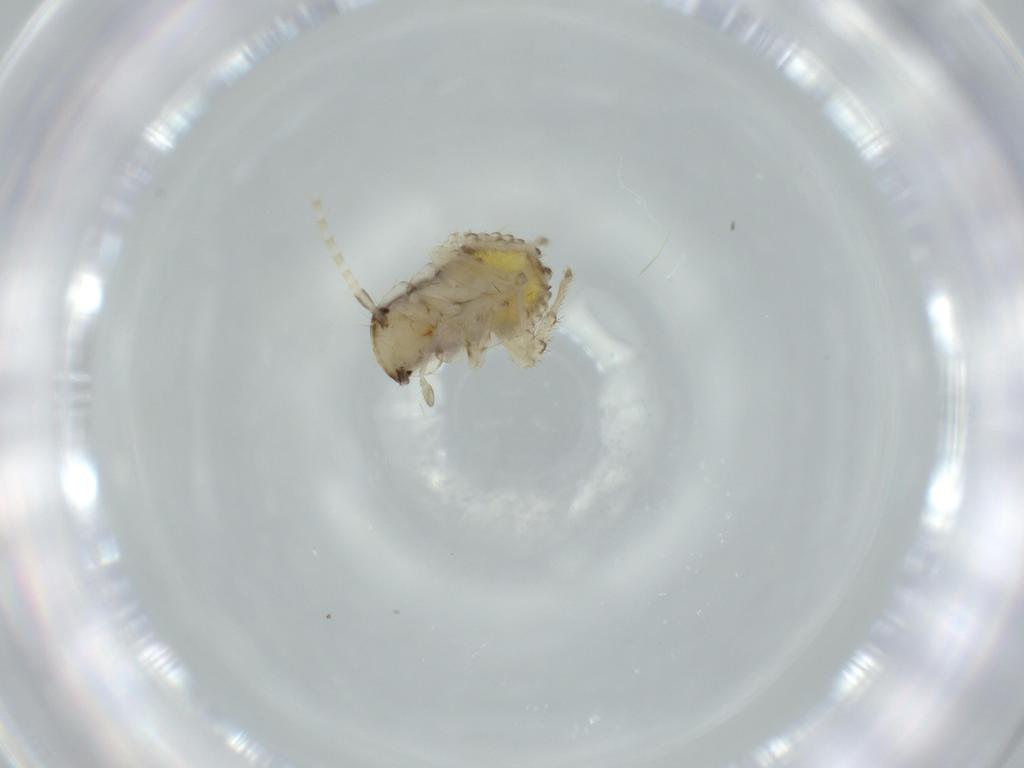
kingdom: Animalia
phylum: Arthropoda
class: Insecta
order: Blattodea
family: Ectobiidae
